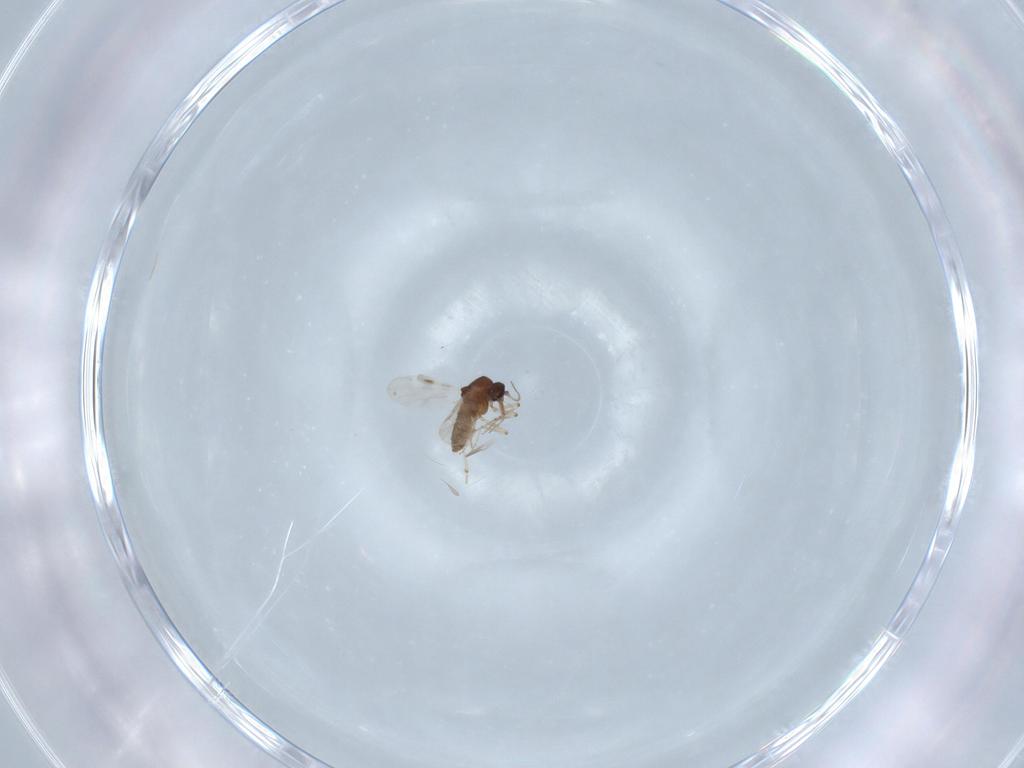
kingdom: Animalia
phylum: Arthropoda
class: Insecta
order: Diptera
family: Ceratopogonidae
